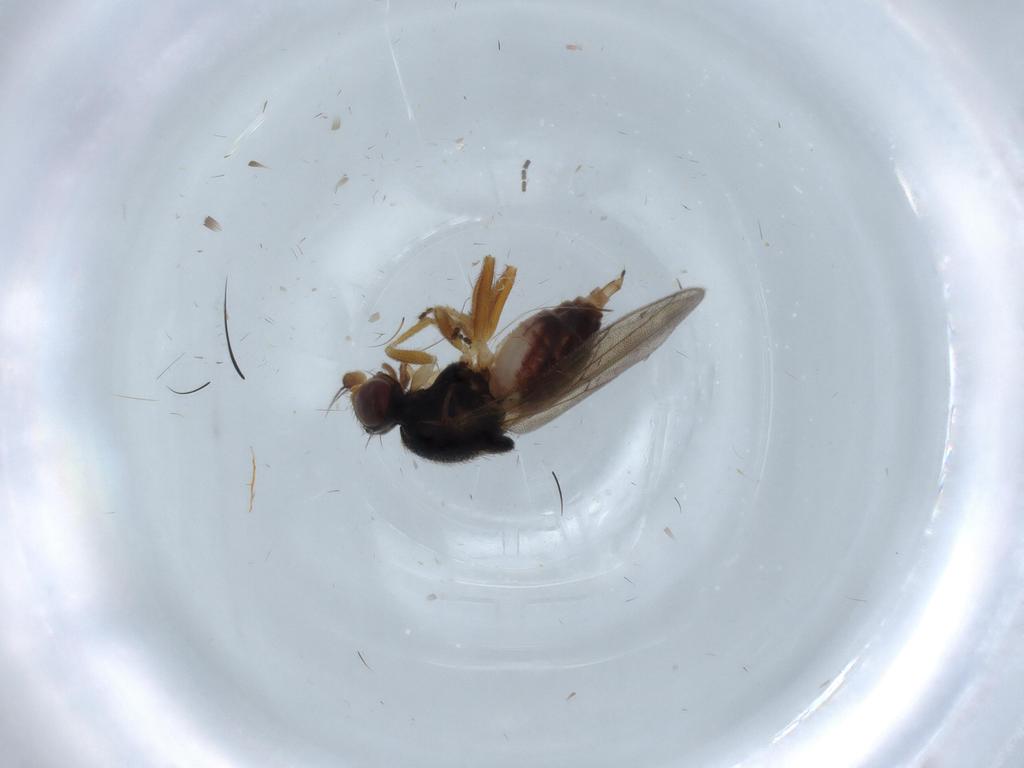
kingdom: Animalia
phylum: Arthropoda
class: Insecta
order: Diptera
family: Chloropidae
